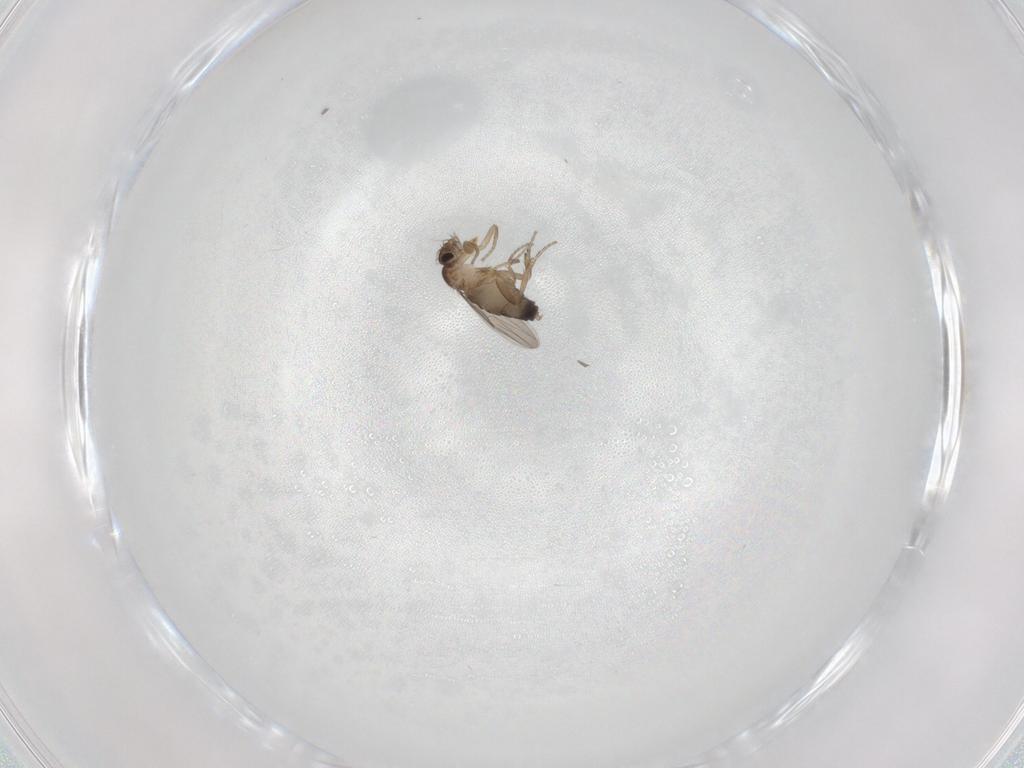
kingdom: Animalia
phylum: Arthropoda
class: Insecta
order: Diptera
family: Phoridae
